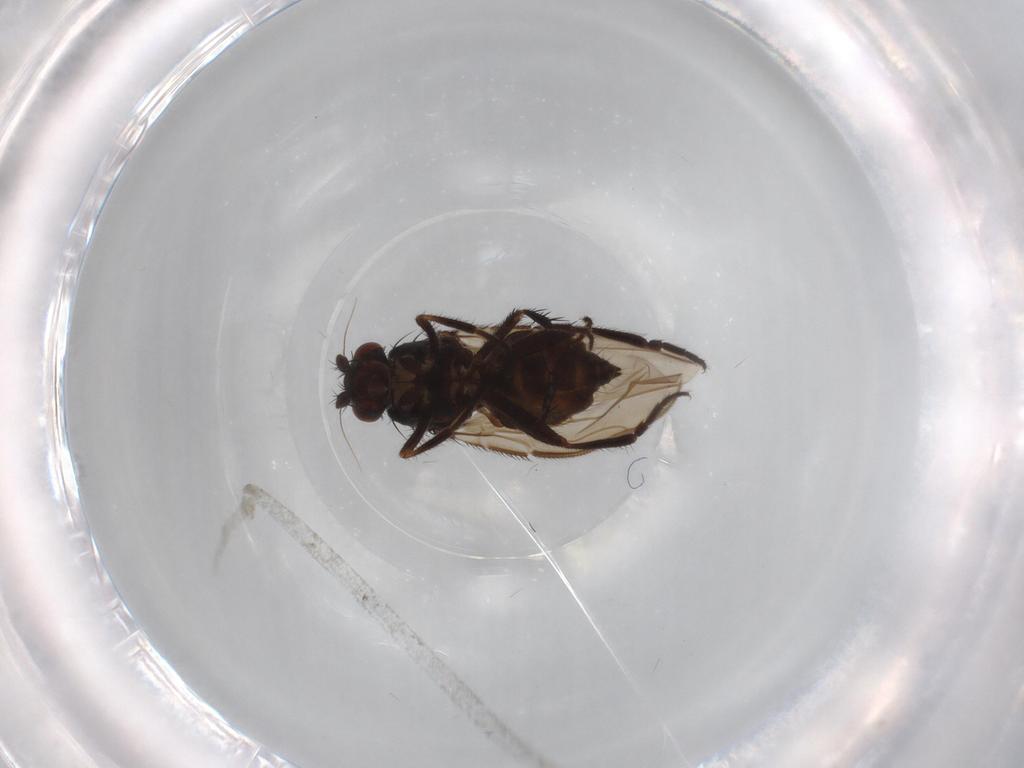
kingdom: Animalia
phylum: Arthropoda
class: Insecta
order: Diptera
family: Sphaeroceridae
